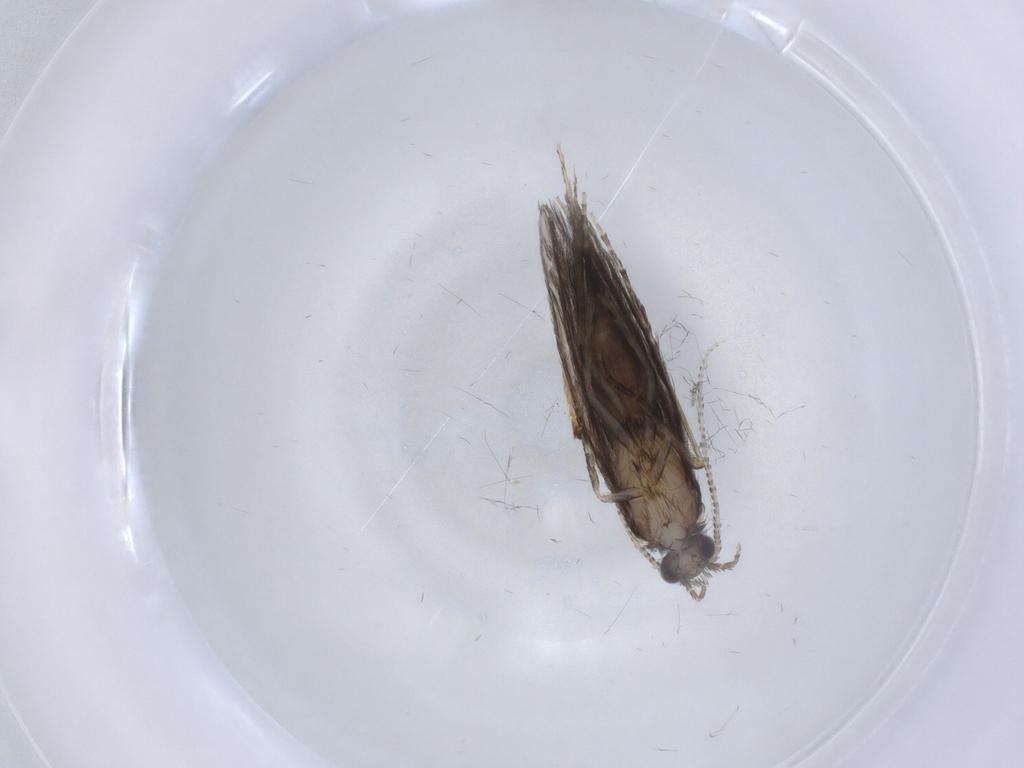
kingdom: Animalia
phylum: Arthropoda
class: Insecta
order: Trichoptera
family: Hydroptilidae
